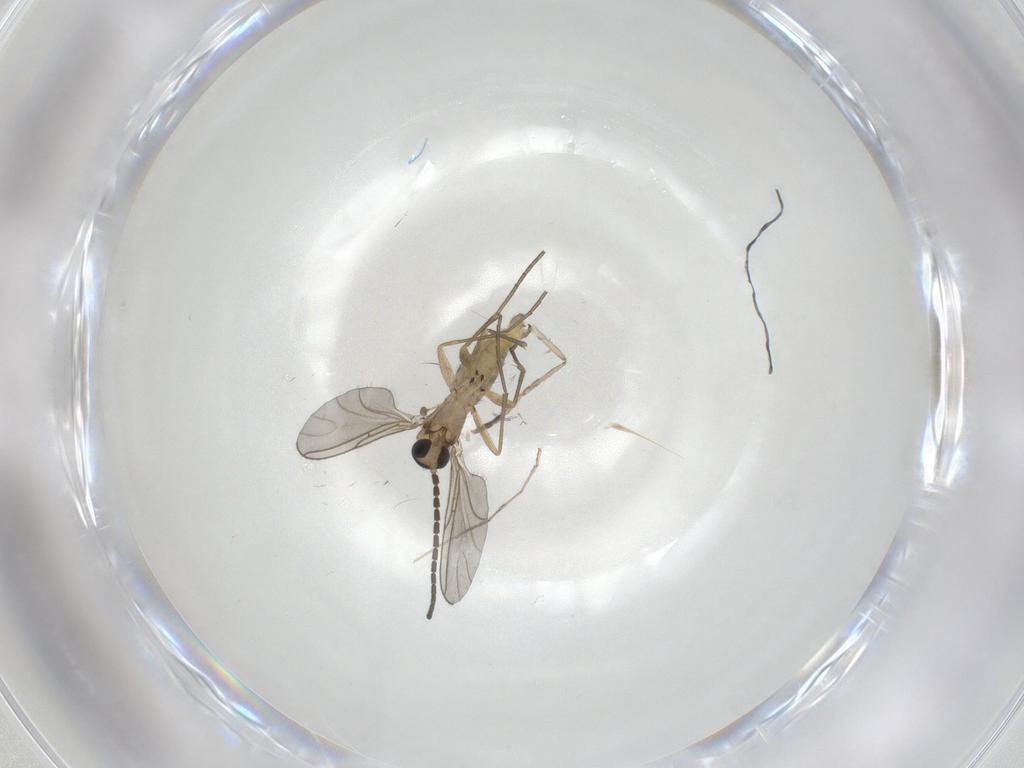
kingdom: Animalia
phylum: Arthropoda
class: Insecta
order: Diptera
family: Sciaridae
